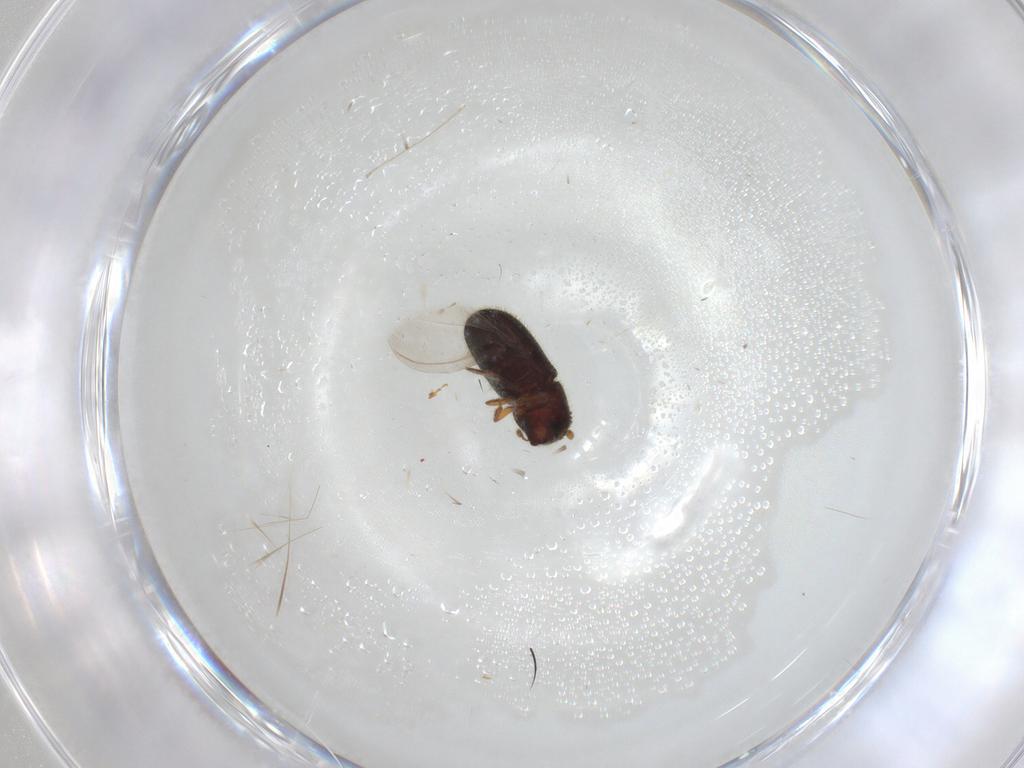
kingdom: Animalia
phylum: Arthropoda
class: Insecta
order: Coleoptera
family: Curculionidae
